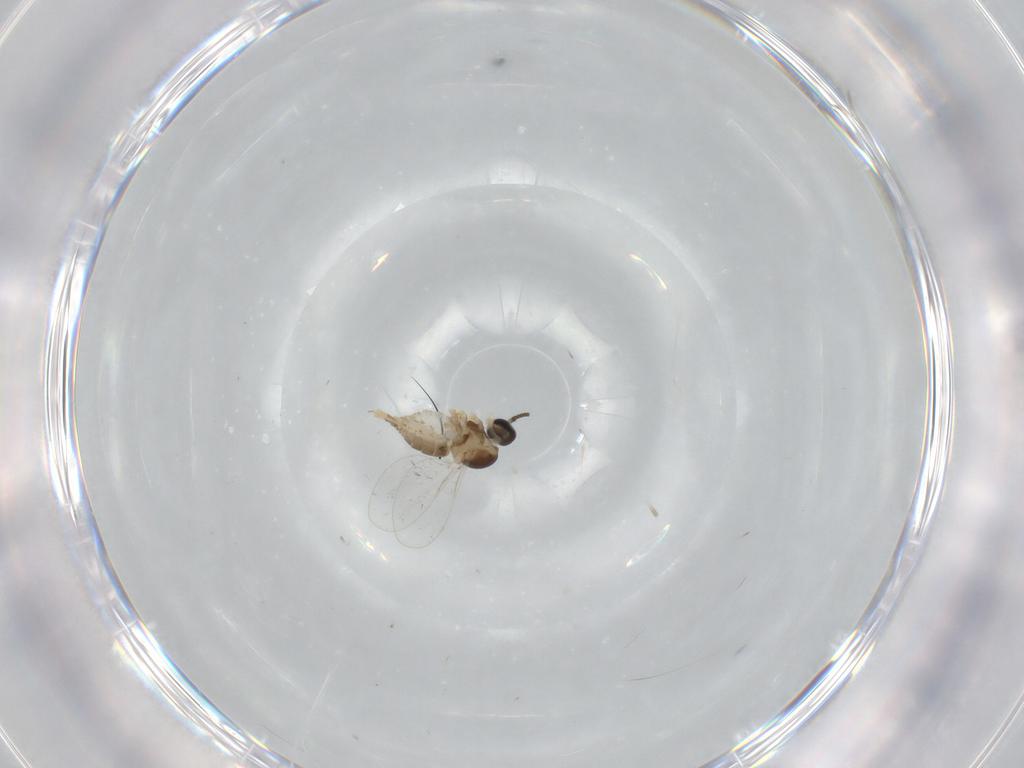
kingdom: Animalia
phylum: Arthropoda
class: Insecta
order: Diptera
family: Cecidomyiidae
